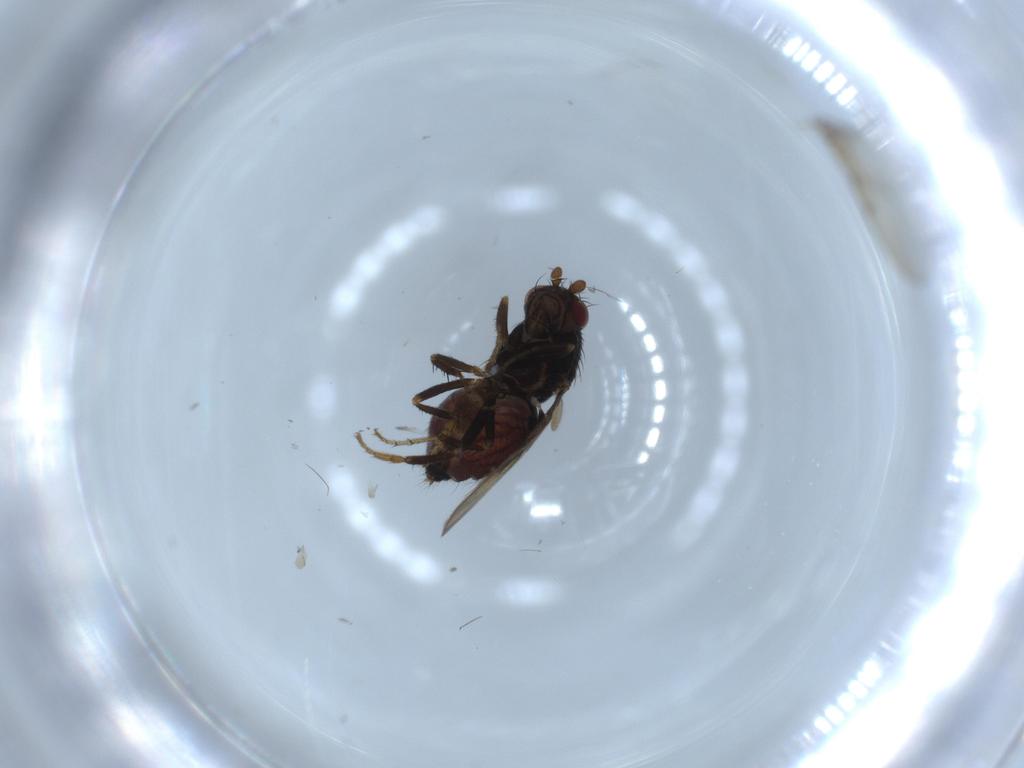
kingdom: Animalia
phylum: Arthropoda
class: Insecta
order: Diptera
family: Sphaeroceridae
